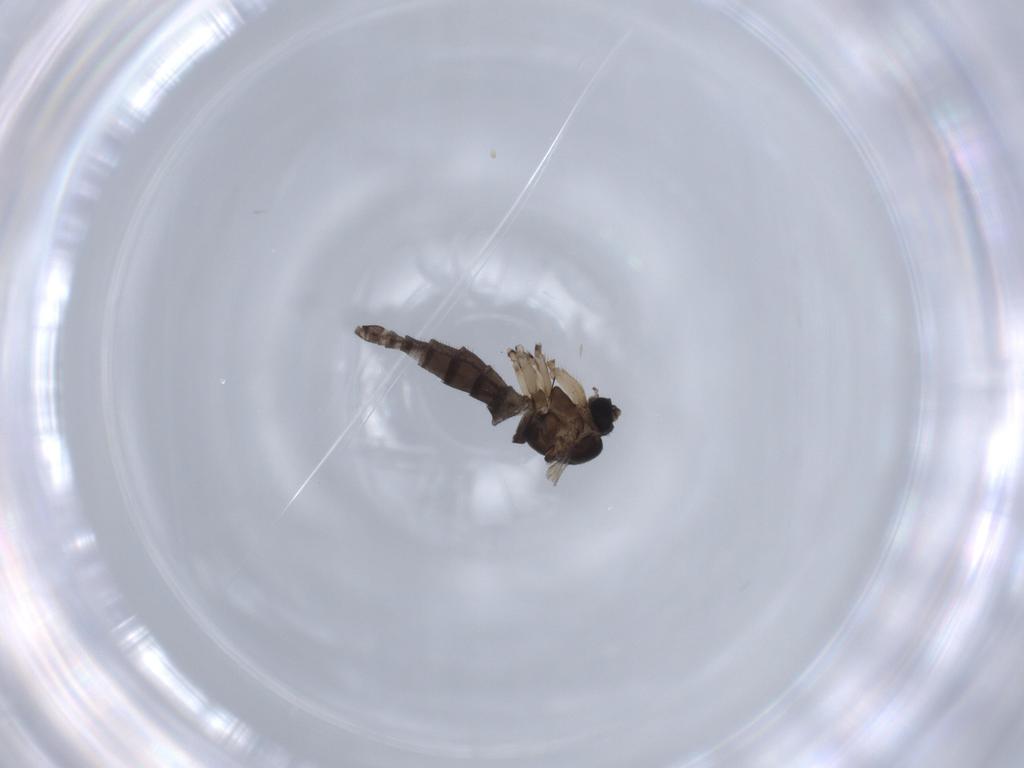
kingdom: Animalia
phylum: Arthropoda
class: Insecta
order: Diptera
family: Sciaridae
